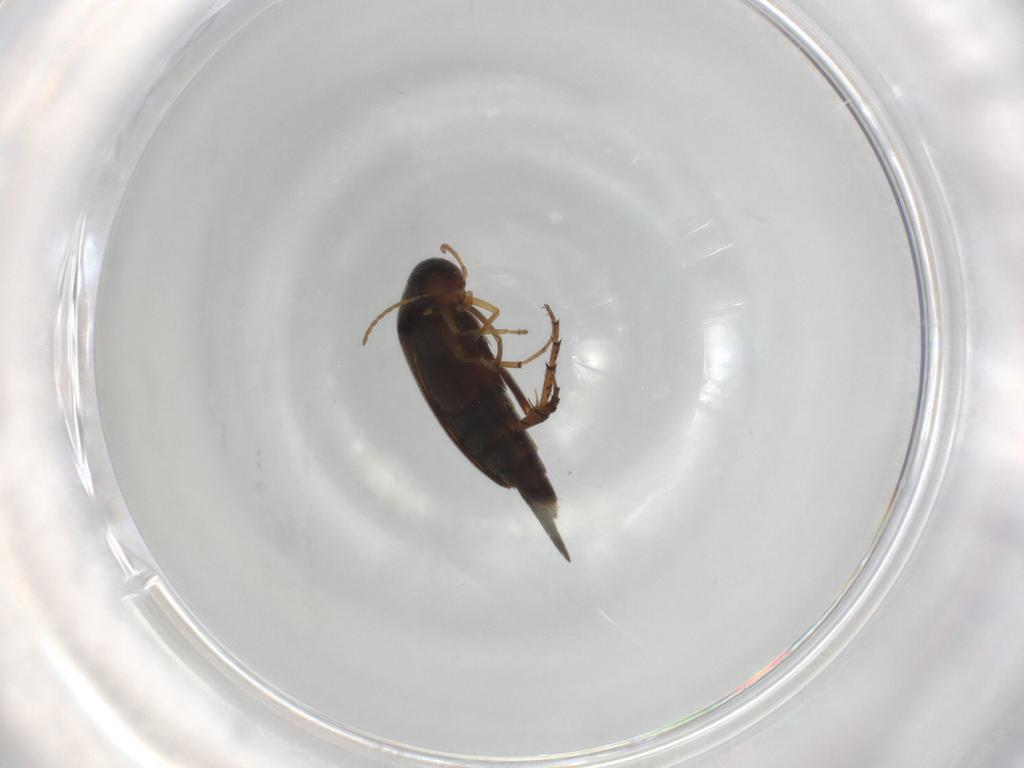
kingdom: Animalia
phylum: Arthropoda
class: Insecta
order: Coleoptera
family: Lampyridae
